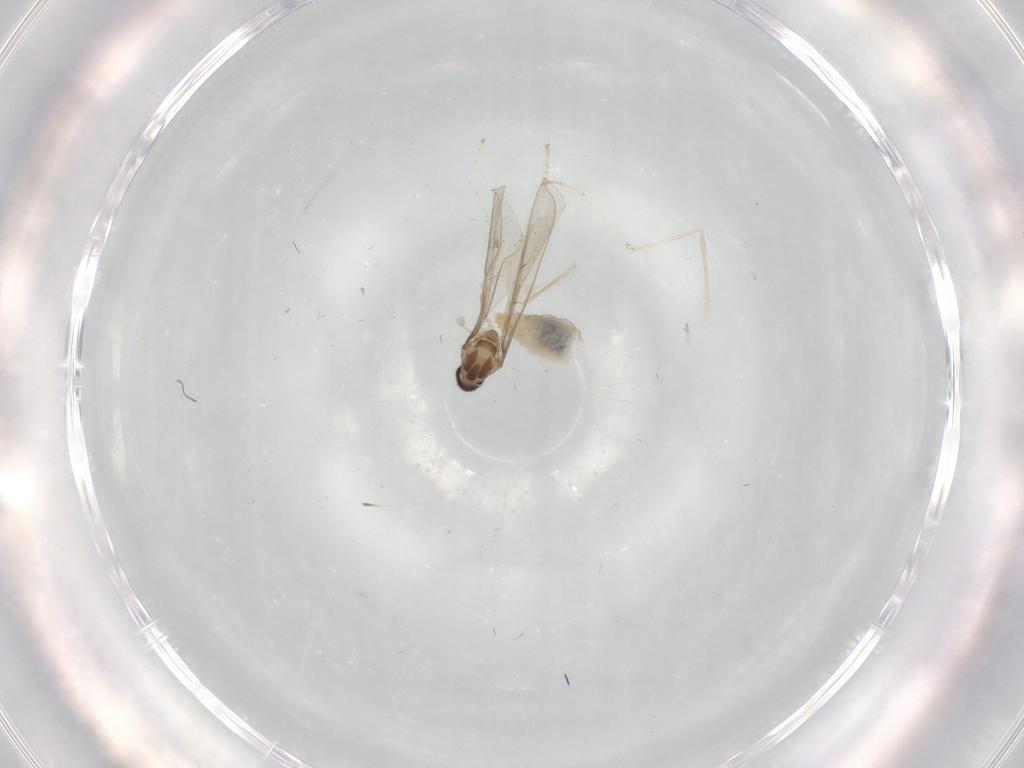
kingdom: Animalia
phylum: Arthropoda
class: Insecta
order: Diptera
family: Cecidomyiidae
